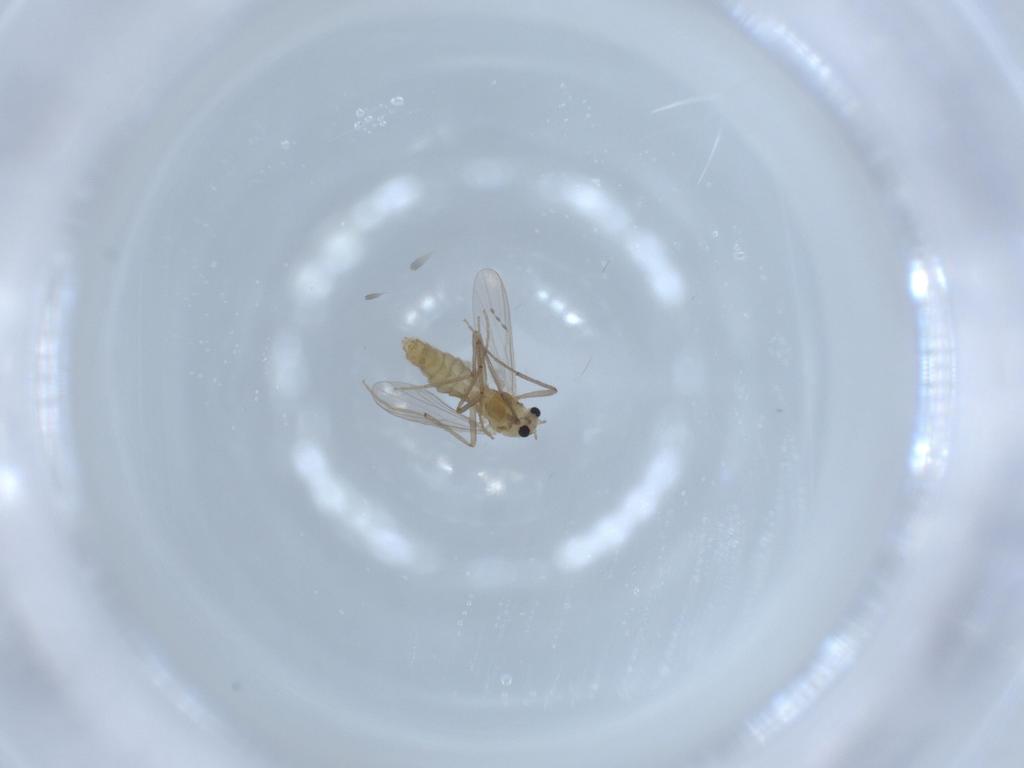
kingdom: Animalia
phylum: Arthropoda
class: Insecta
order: Diptera
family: Chironomidae
